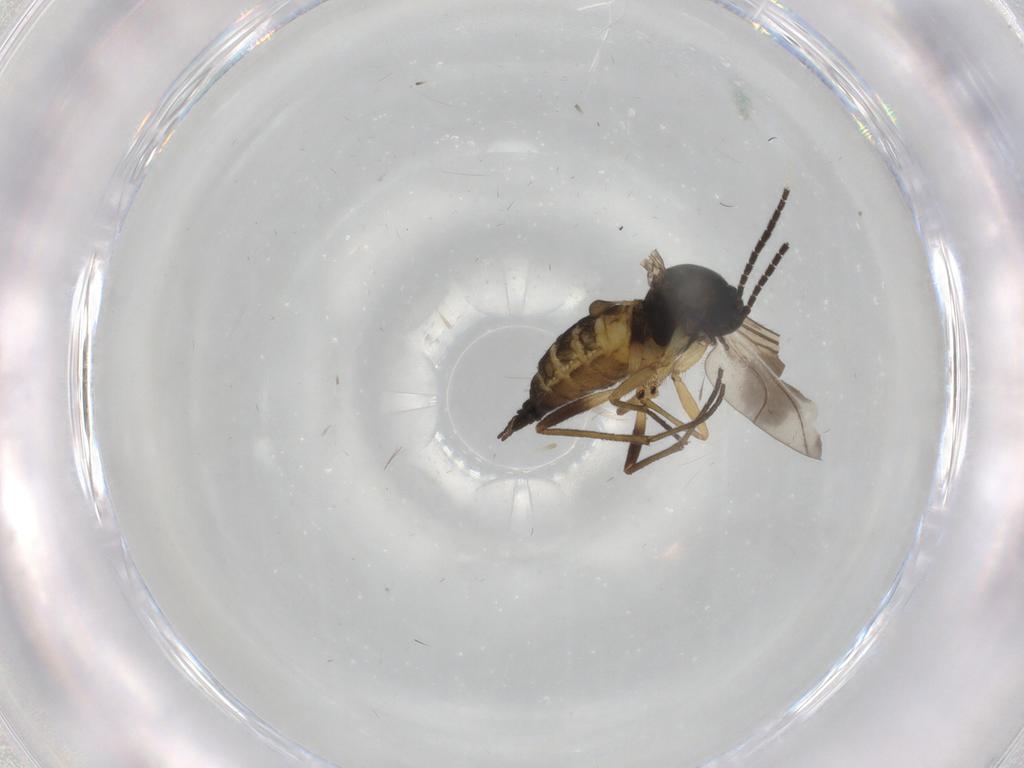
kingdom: Animalia
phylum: Arthropoda
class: Insecta
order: Diptera
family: Sciaridae
